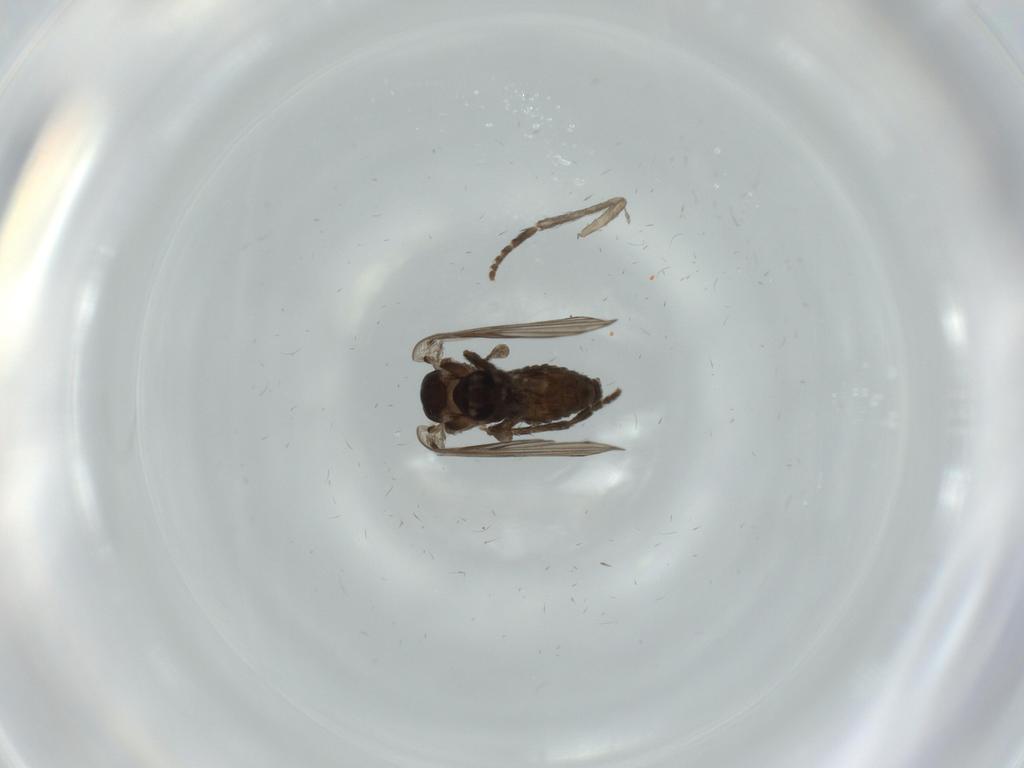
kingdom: Animalia
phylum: Arthropoda
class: Insecta
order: Diptera
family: Psychodidae
